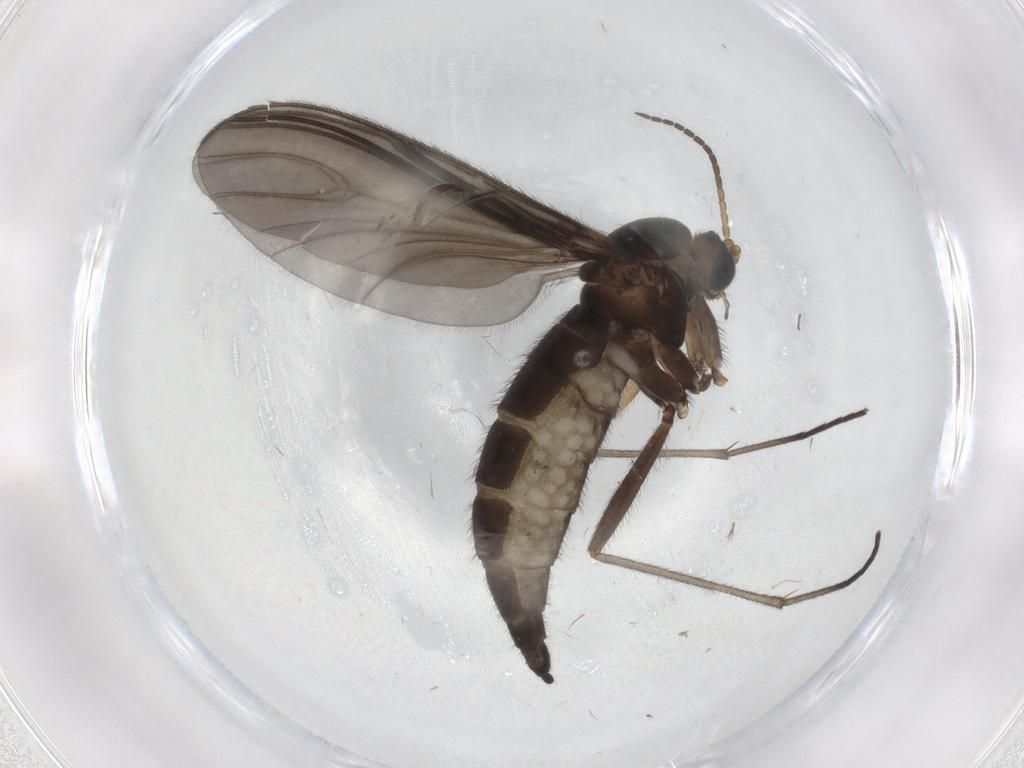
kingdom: Animalia
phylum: Arthropoda
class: Insecta
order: Diptera
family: Sciaridae
